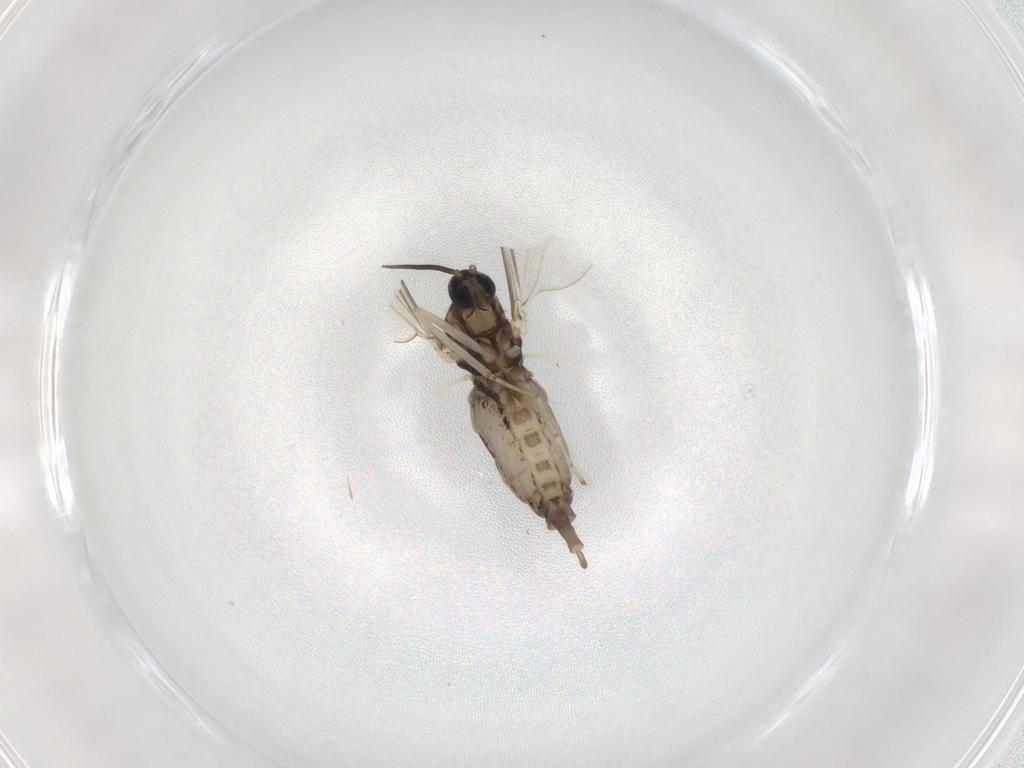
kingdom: Animalia
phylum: Arthropoda
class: Insecta
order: Diptera
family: Cecidomyiidae
